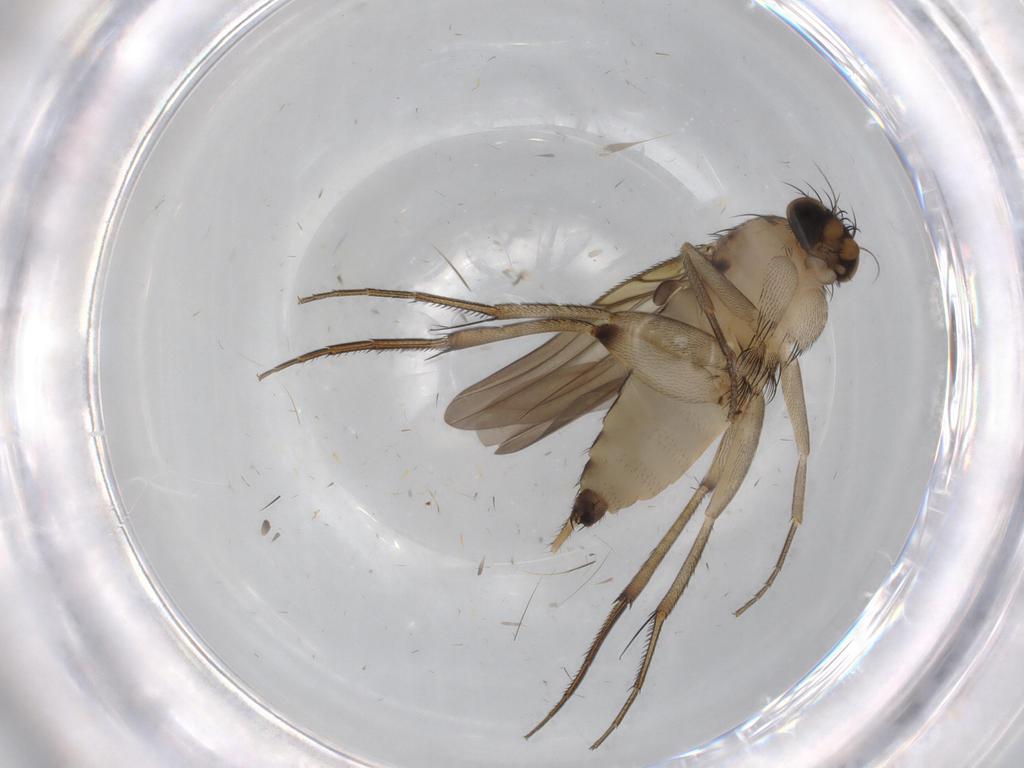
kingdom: Animalia
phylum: Arthropoda
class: Insecta
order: Diptera
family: Phoridae
